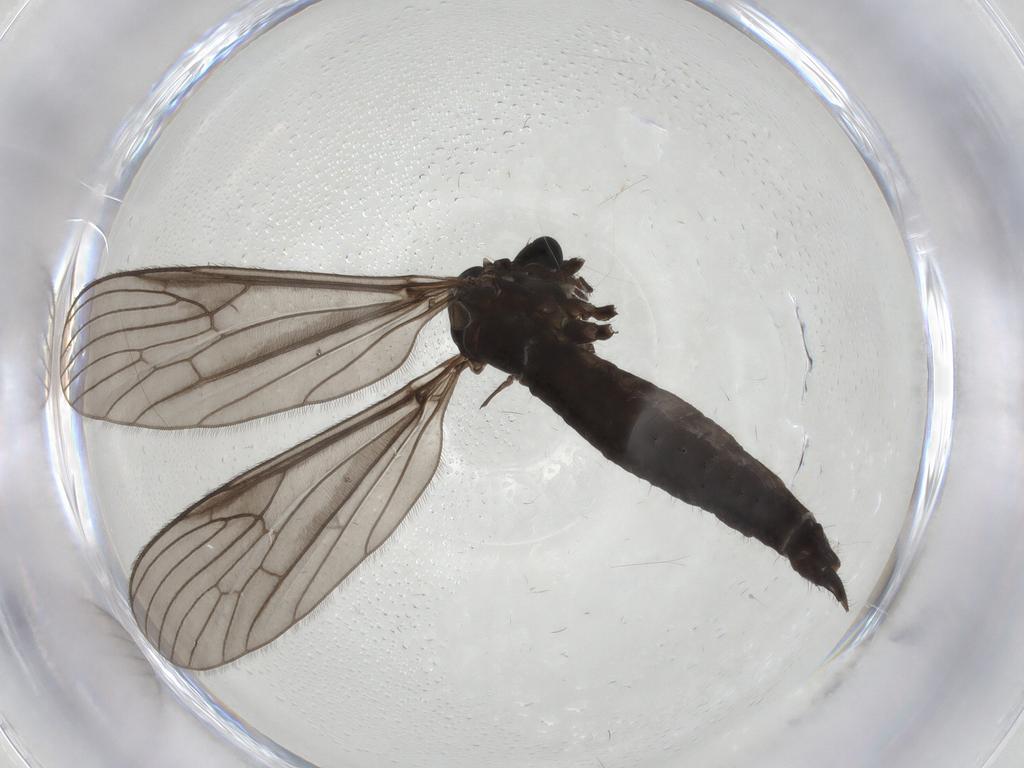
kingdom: Animalia
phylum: Arthropoda
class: Insecta
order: Diptera
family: Limoniidae
